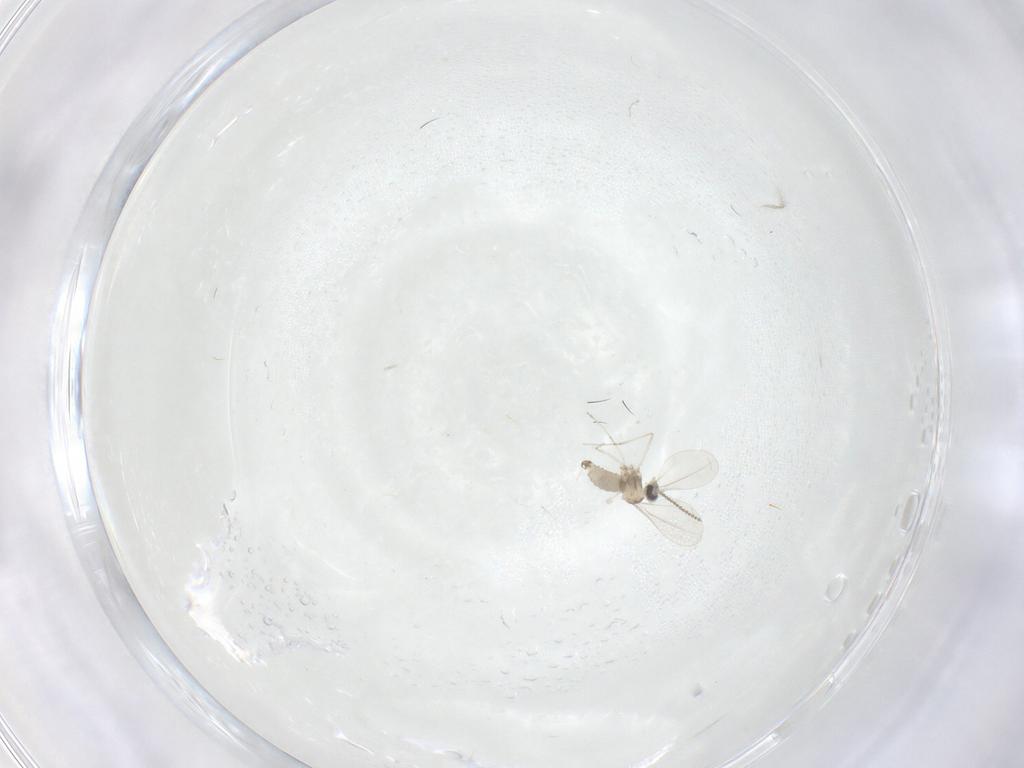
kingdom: Animalia
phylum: Arthropoda
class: Insecta
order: Diptera
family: Cecidomyiidae
